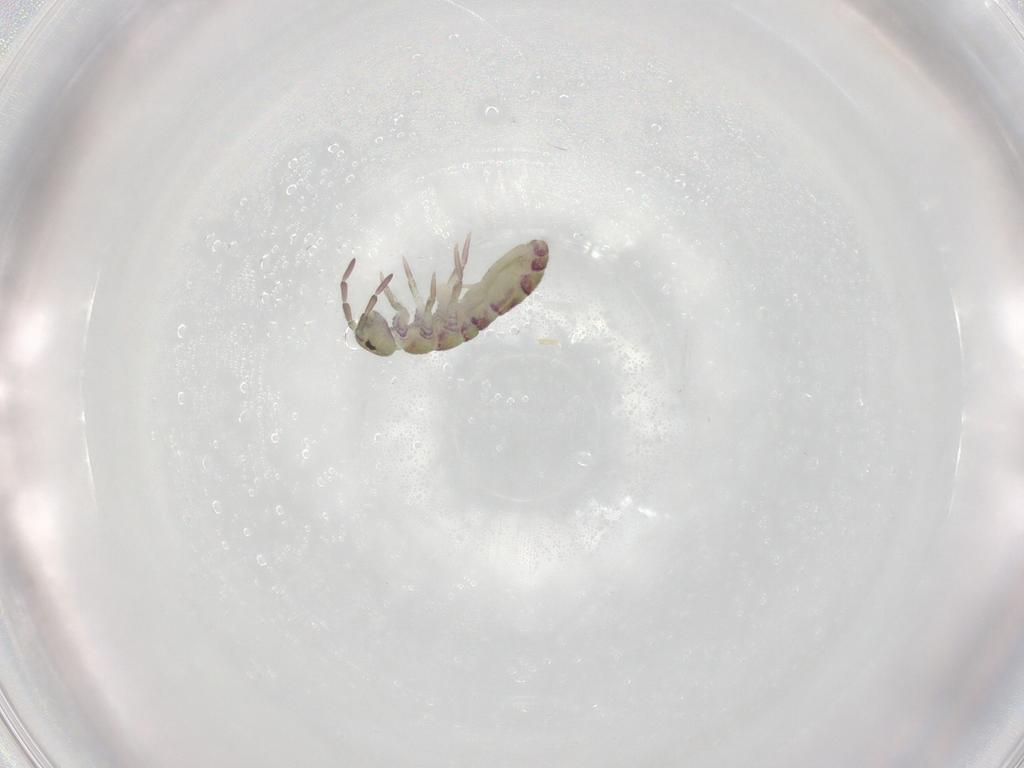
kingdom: Animalia
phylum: Arthropoda
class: Collembola
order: Entomobryomorpha
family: Isotomidae
